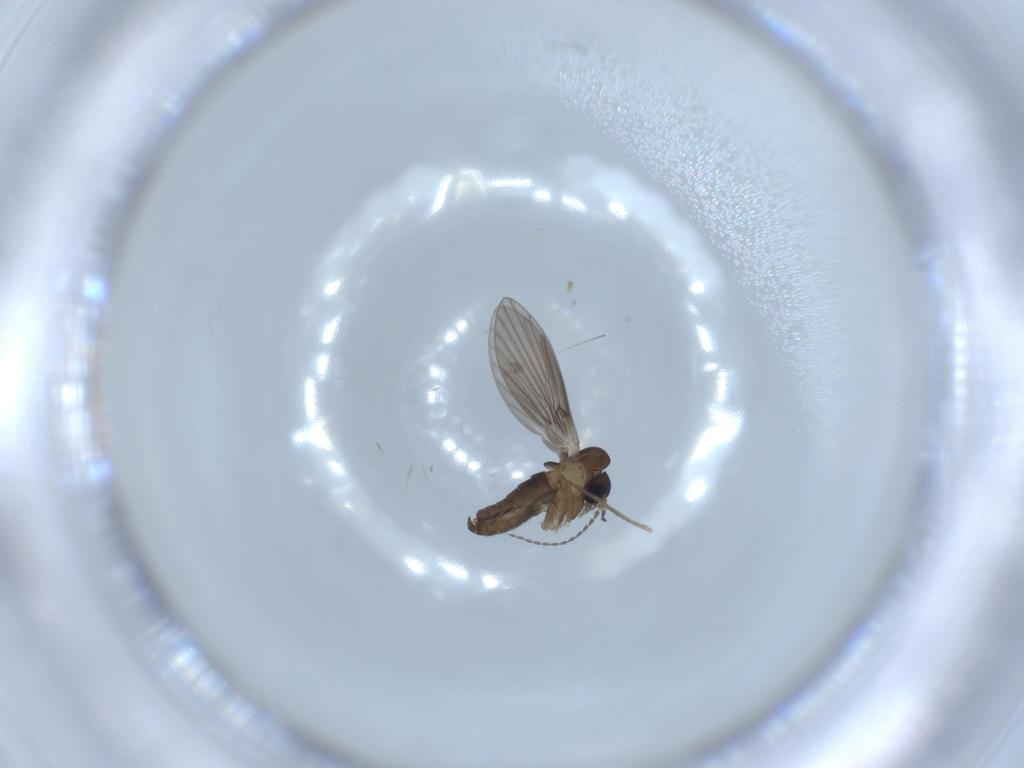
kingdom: Animalia
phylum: Arthropoda
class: Insecta
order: Diptera
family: Psychodidae
